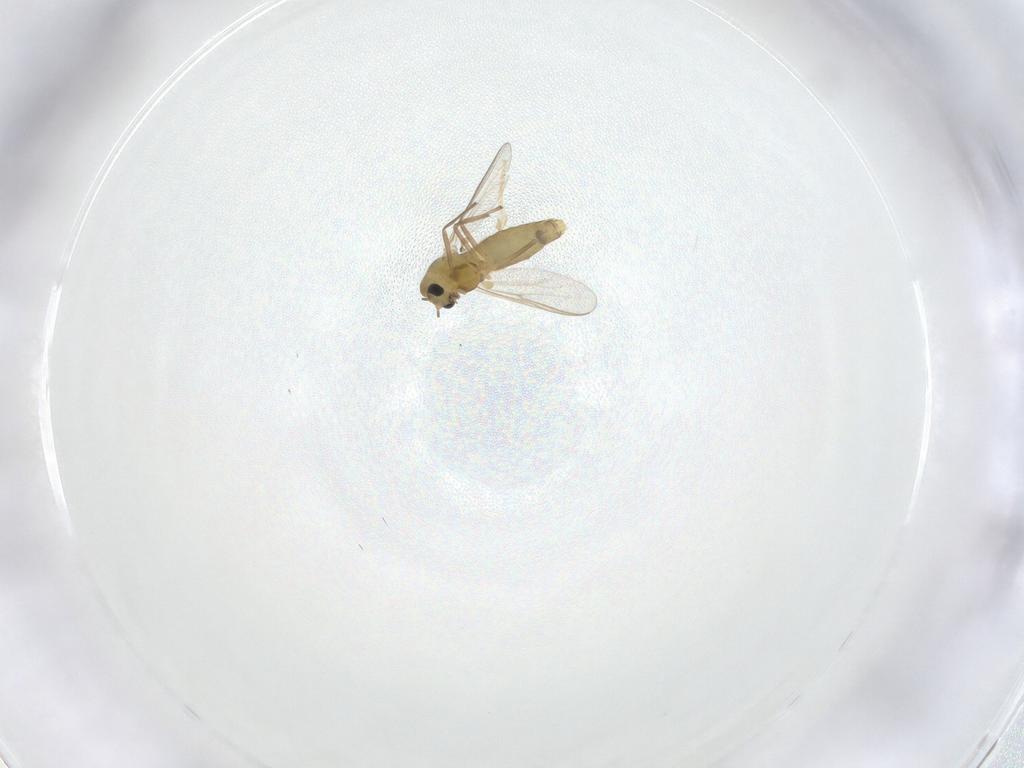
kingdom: Animalia
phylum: Arthropoda
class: Insecta
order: Diptera
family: Chironomidae
